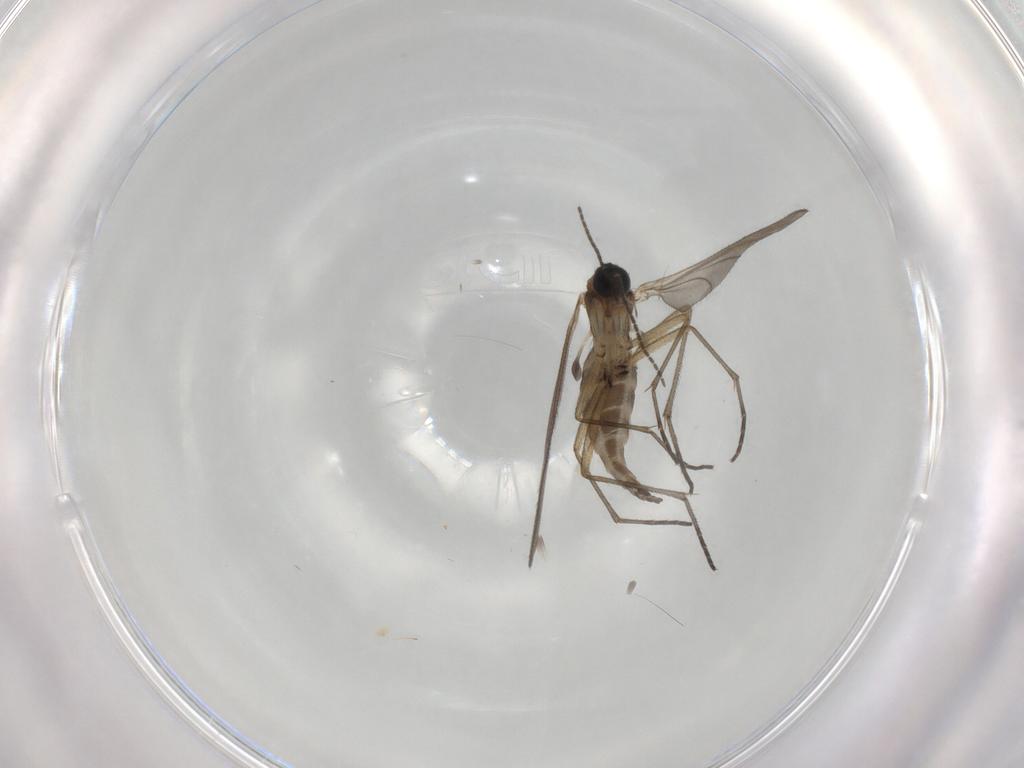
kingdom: Animalia
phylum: Arthropoda
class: Insecta
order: Diptera
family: Sciaridae
